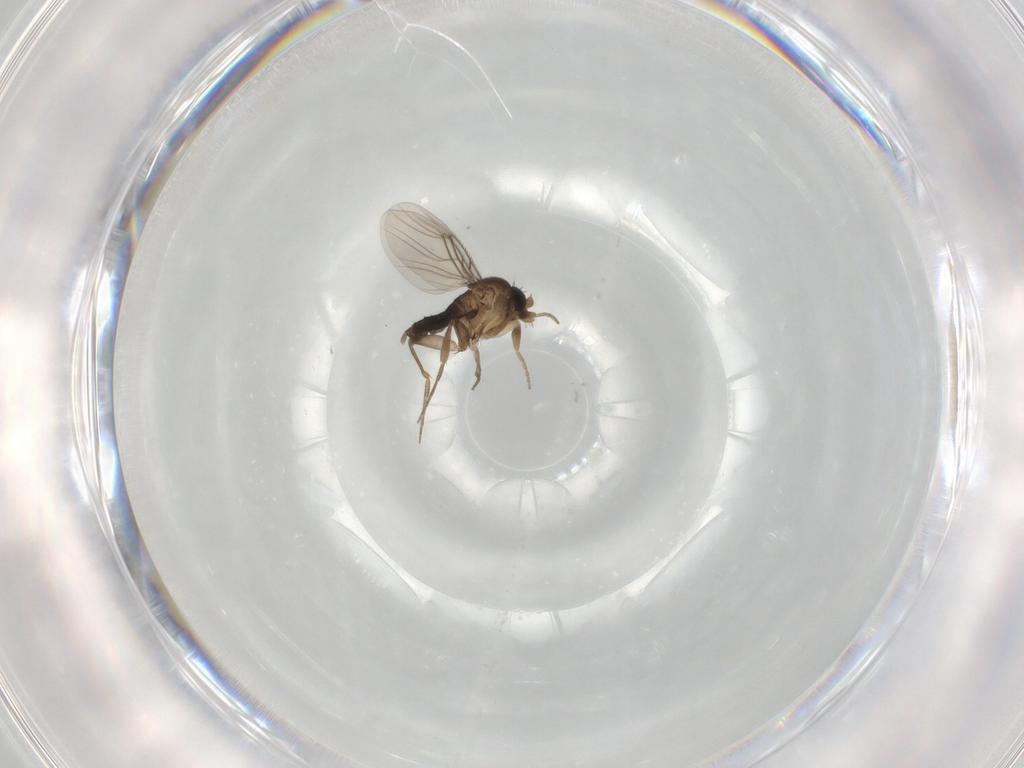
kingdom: Animalia
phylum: Arthropoda
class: Insecta
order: Diptera
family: Phoridae
